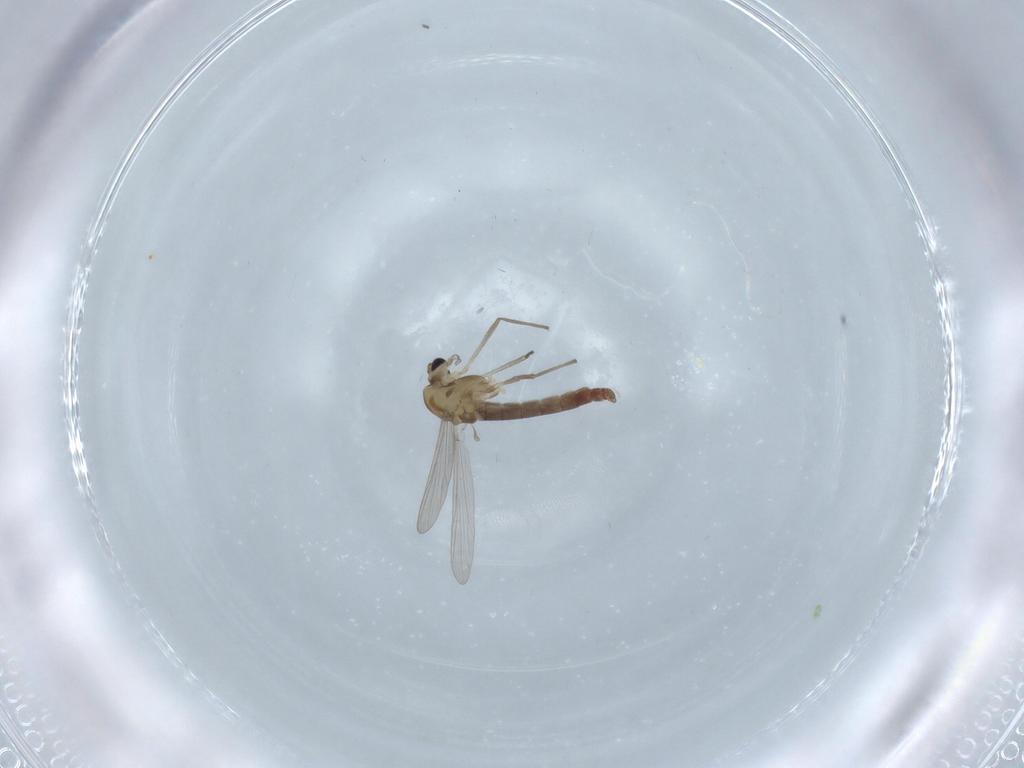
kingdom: Animalia
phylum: Arthropoda
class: Insecta
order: Diptera
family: Chironomidae
